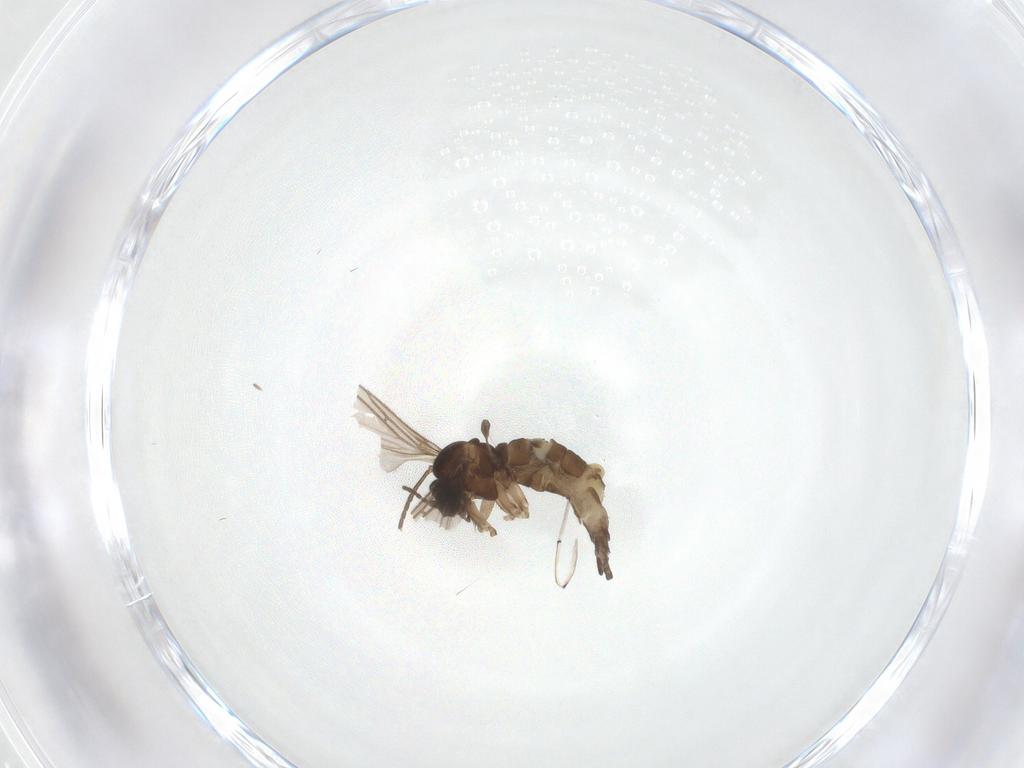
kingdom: Animalia
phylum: Arthropoda
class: Insecta
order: Diptera
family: Sciaridae
